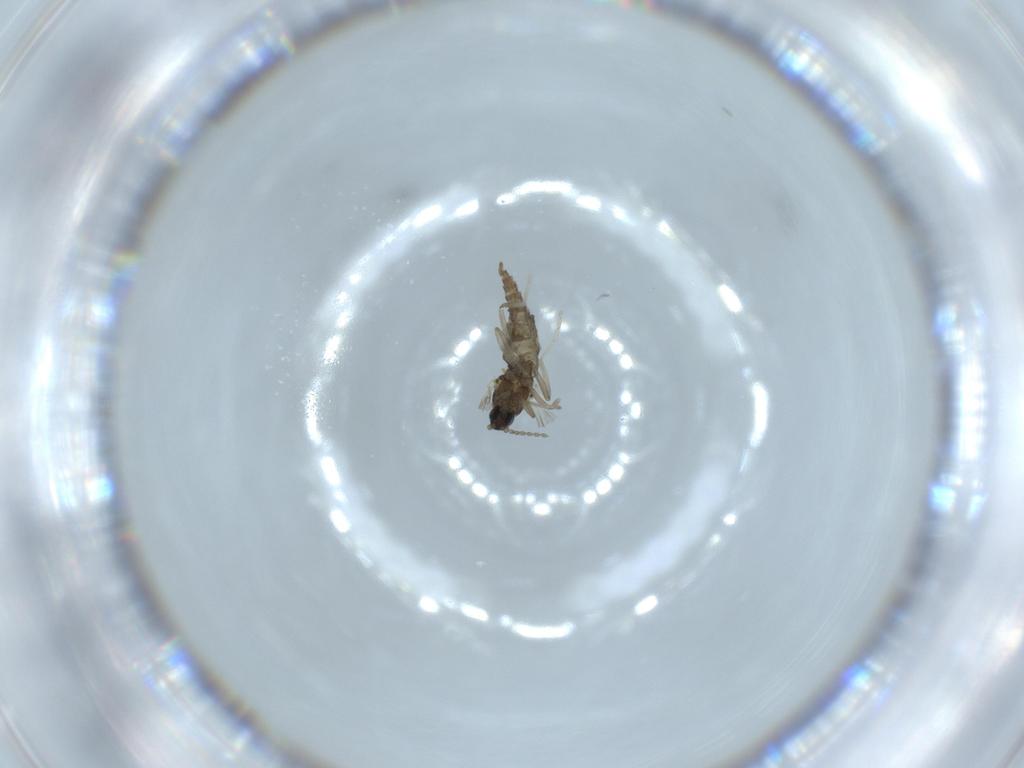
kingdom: Animalia
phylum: Arthropoda
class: Insecta
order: Diptera
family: Cecidomyiidae
